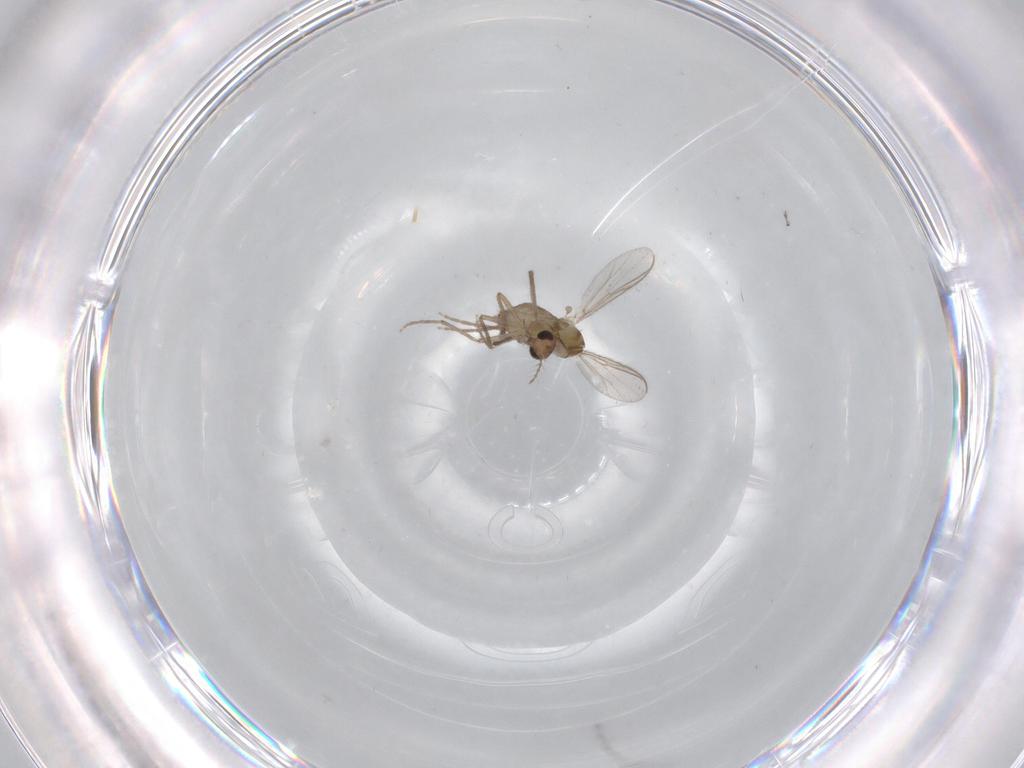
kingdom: Animalia
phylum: Arthropoda
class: Insecta
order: Diptera
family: Chironomidae
